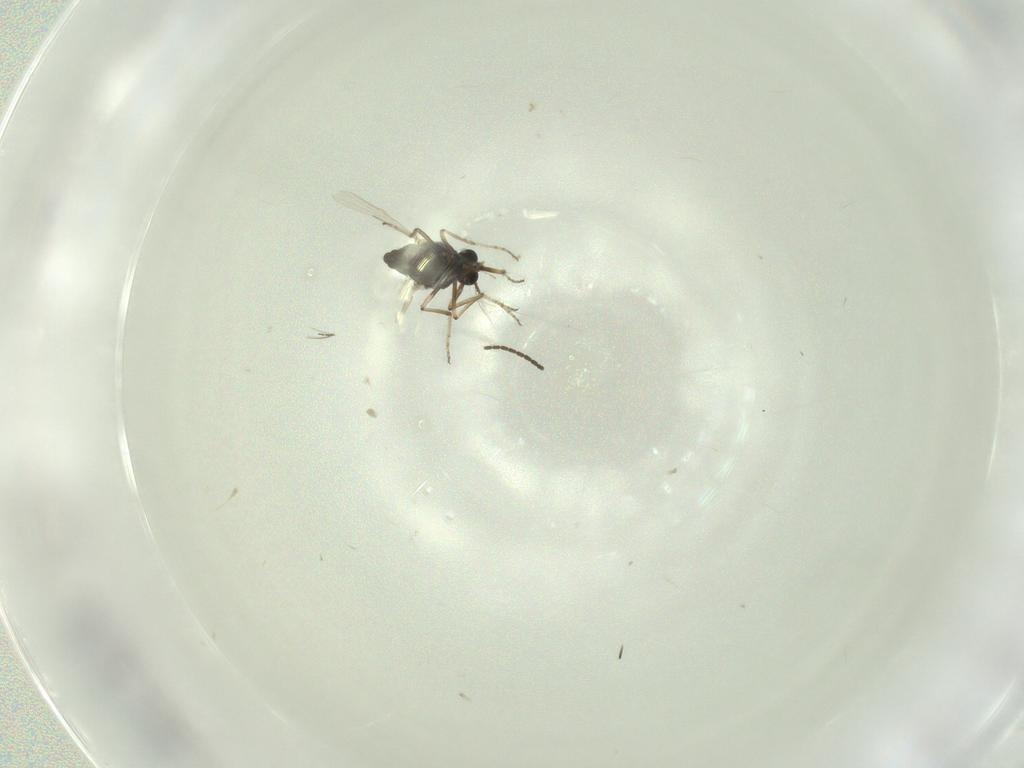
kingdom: Animalia
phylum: Arthropoda
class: Insecta
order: Diptera
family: Ceratopogonidae
